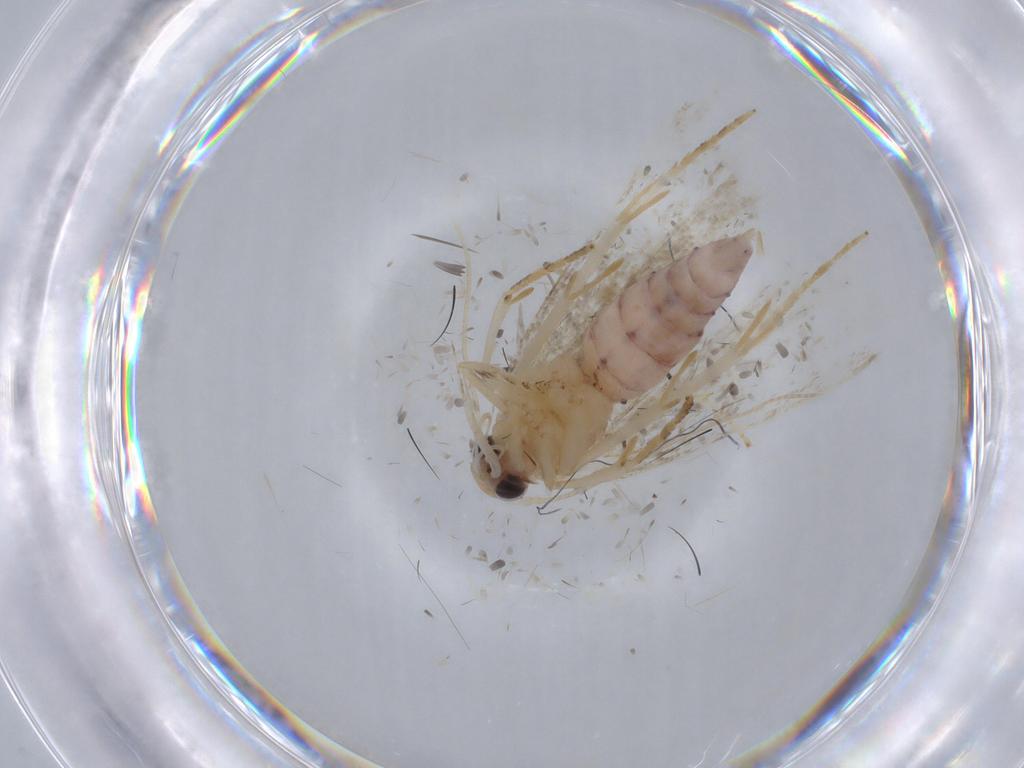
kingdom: Animalia
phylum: Arthropoda
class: Insecta
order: Lepidoptera
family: Gelechiidae
